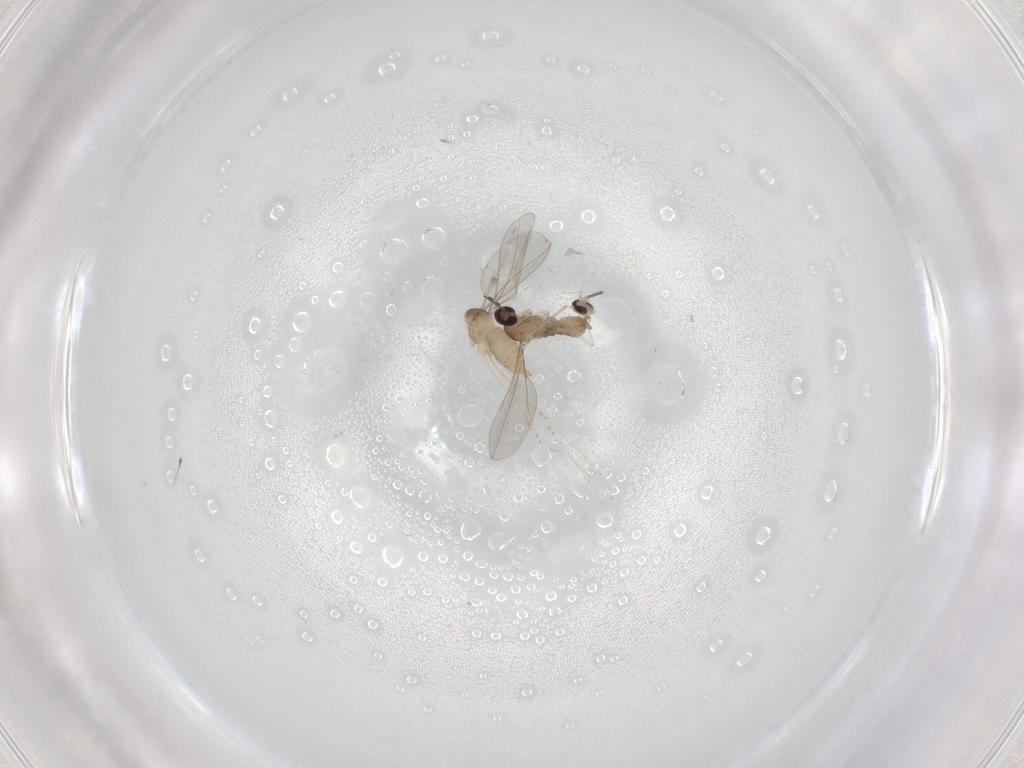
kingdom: Animalia
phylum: Arthropoda
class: Insecta
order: Diptera
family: Cecidomyiidae
